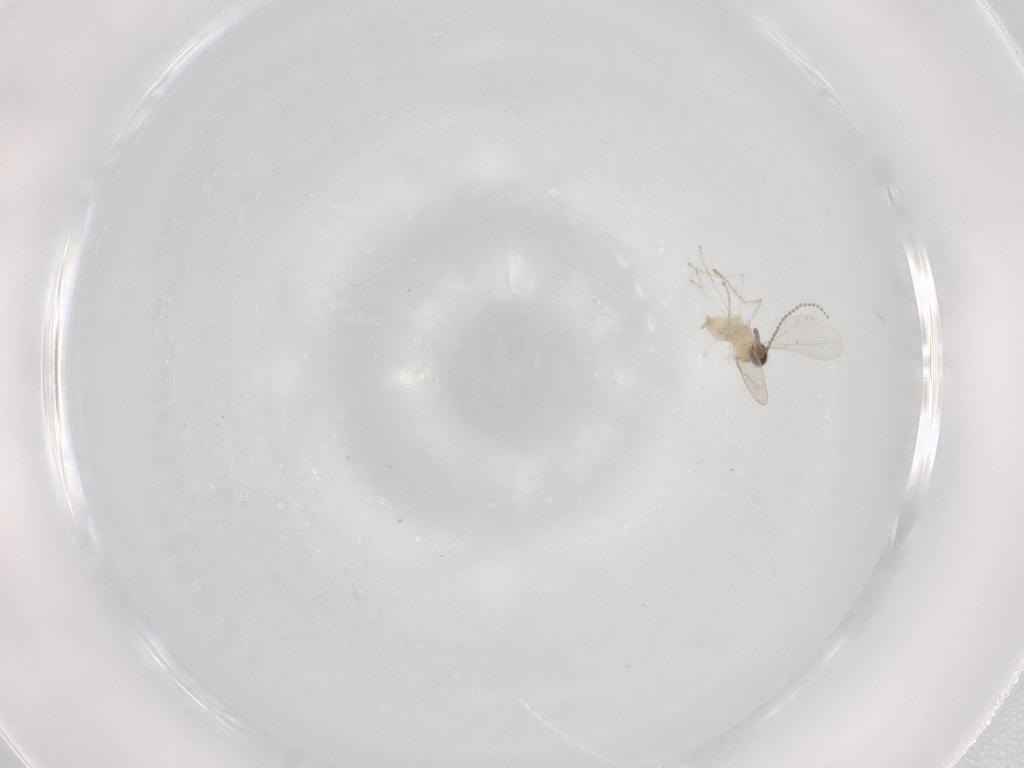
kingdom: Animalia
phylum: Arthropoda
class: Insecta
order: Diptera
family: Cecidomyiidae
